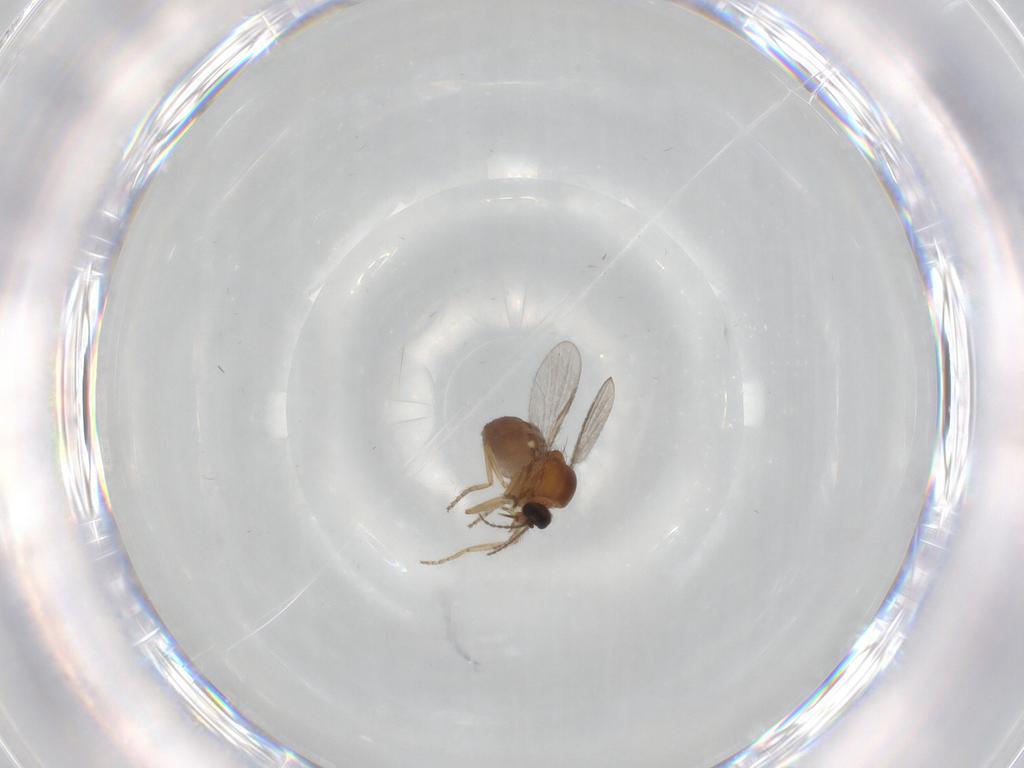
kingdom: Animalia
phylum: Arthropoda
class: Insecta
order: Diptera
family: Ceratopogonidae
